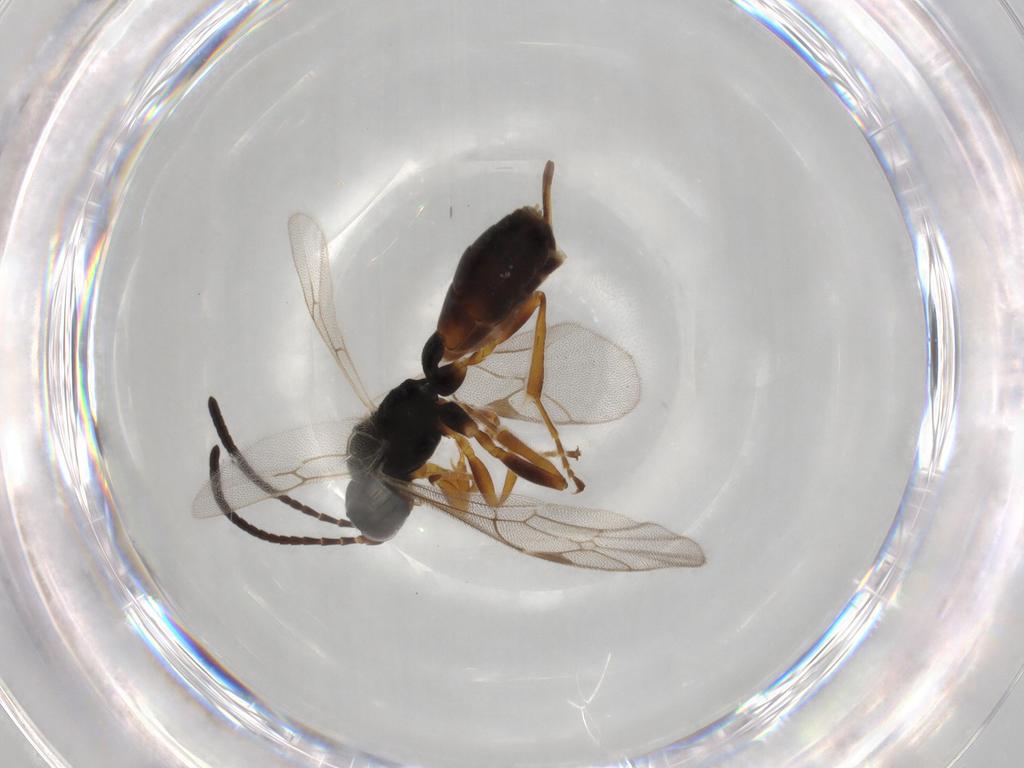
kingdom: Animalia
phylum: Arthropoda
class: Insecta
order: Hymenoptera
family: Ichneumonidae
